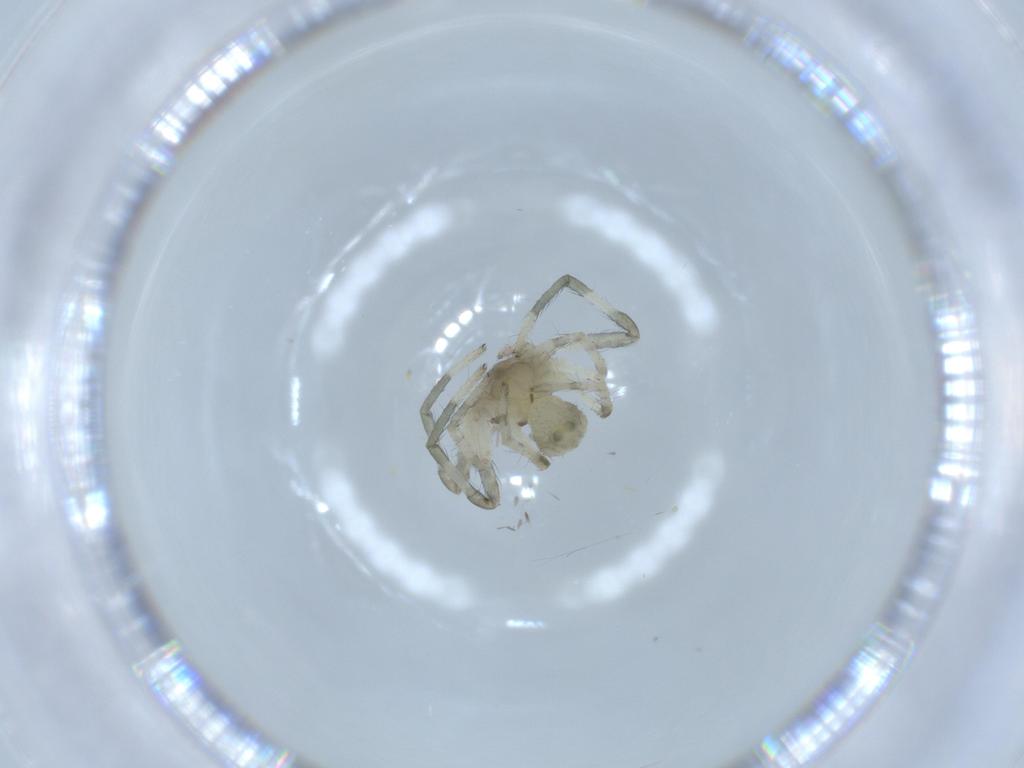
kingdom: Animalia
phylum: Arthropoda
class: Arachnida
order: Araneae
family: Thomisidae
